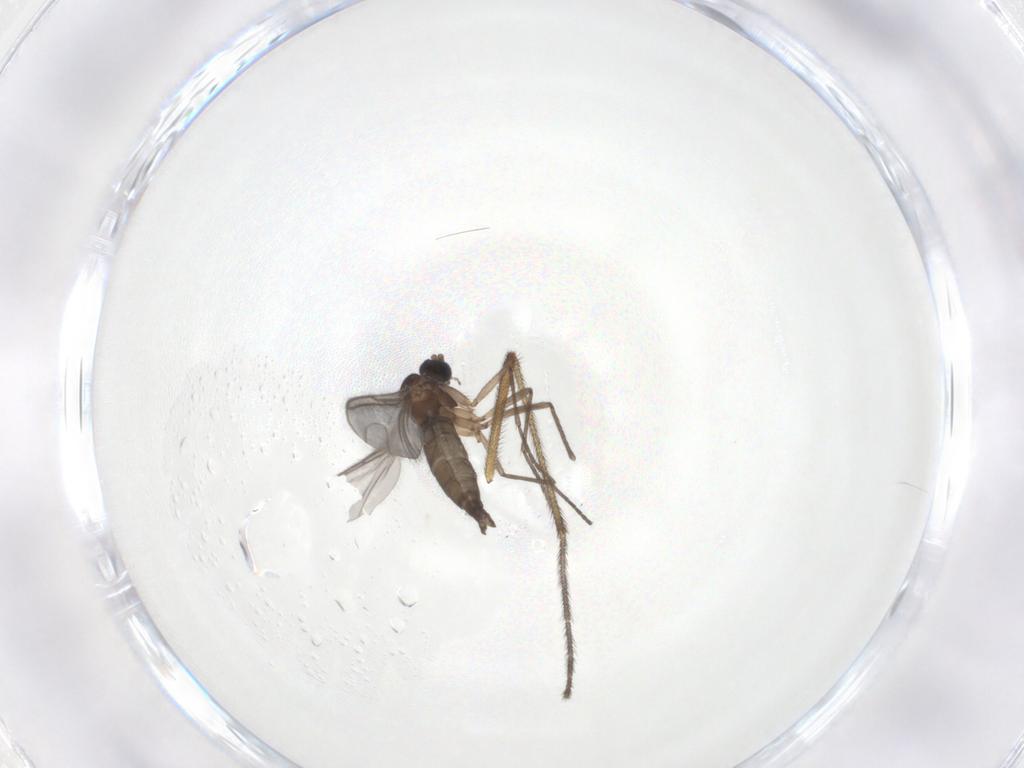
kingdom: Animalia
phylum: Arthropoda
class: Insecta
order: Diptera
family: Keroplatidae
